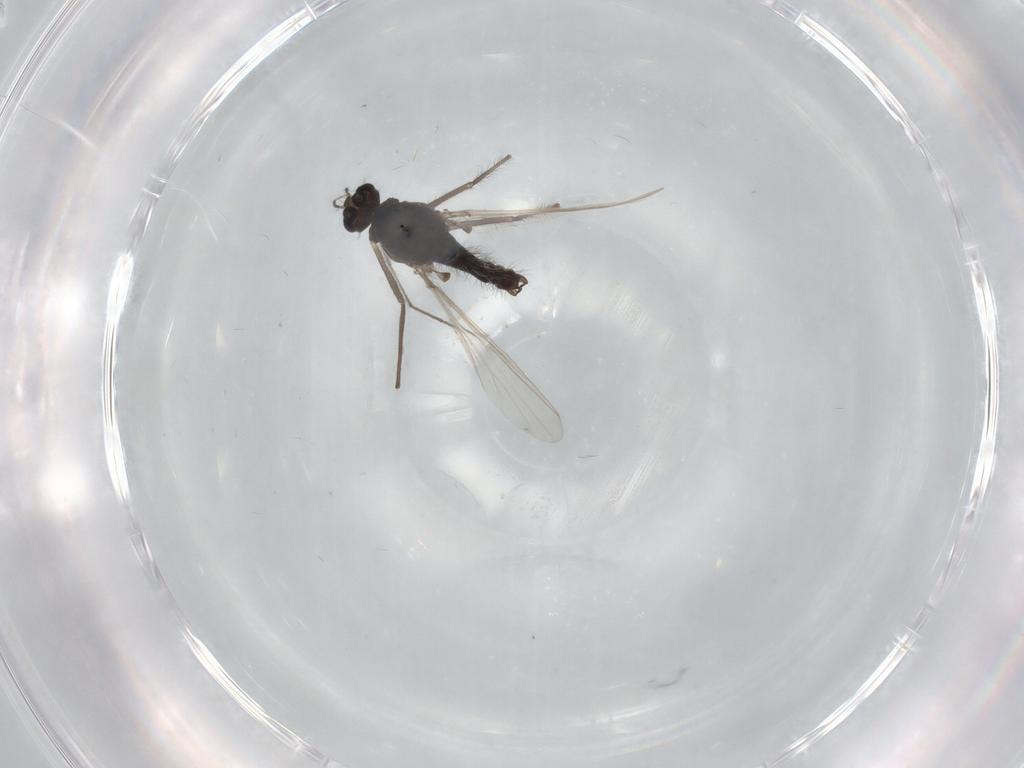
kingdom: Animalia
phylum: Arthropoda
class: Insecta
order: Diptera
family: Chironomidae
